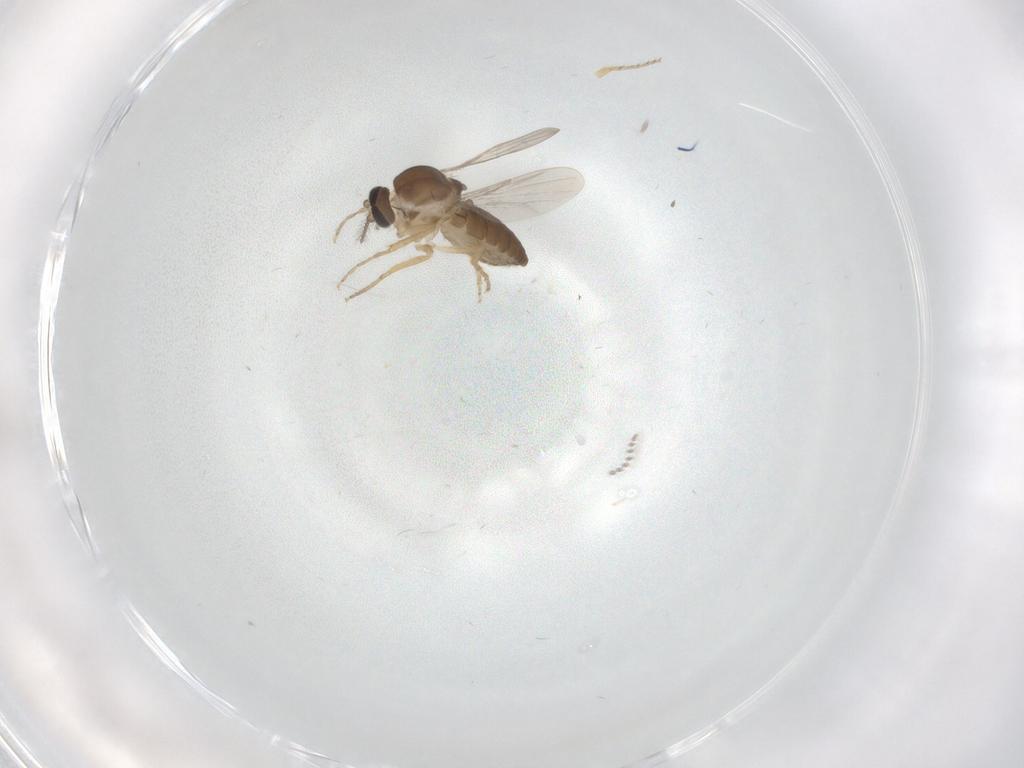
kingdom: Animalia
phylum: Arthropoda
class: Insecta
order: Diptera
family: Ceratopogonidae
